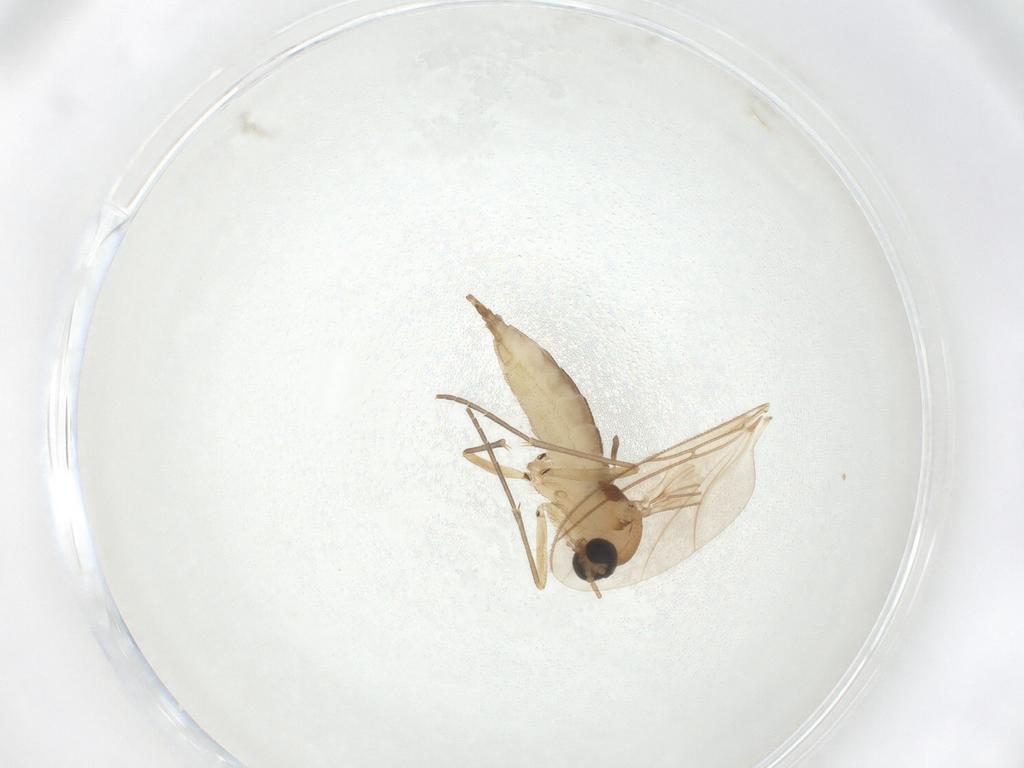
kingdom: Animalia
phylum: Arthropoda
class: Insecta
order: Diptera
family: Sciaridae
